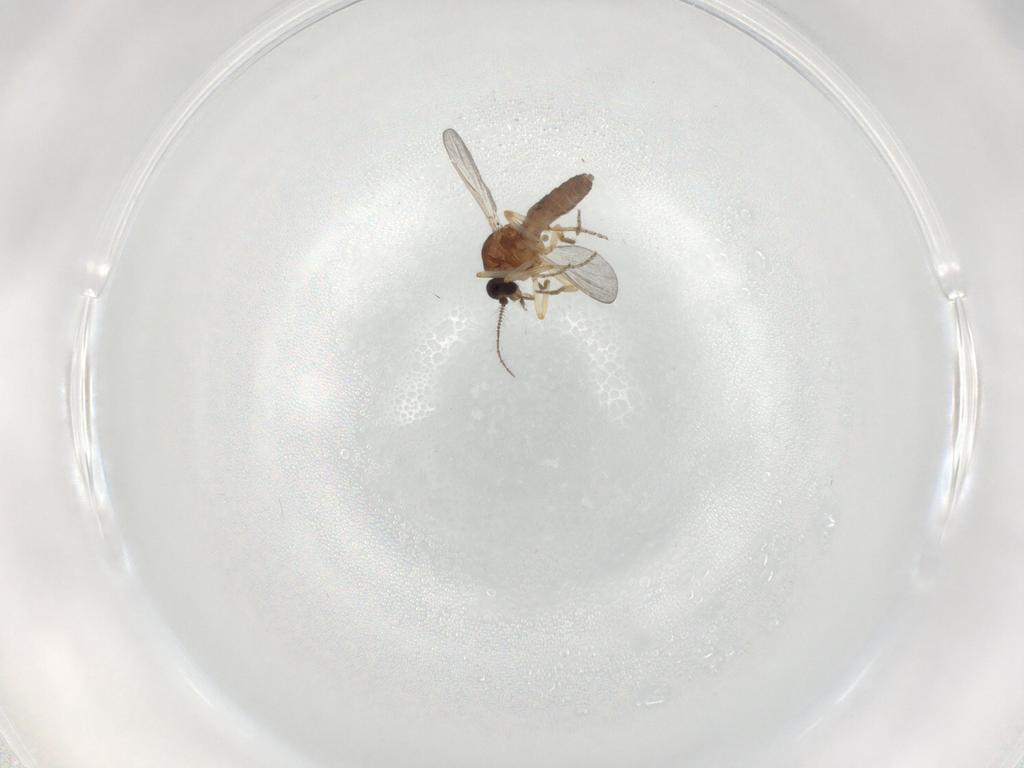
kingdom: Animalia
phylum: Arthropoda
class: Insecta
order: Diptera
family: Ceratopogonidae
